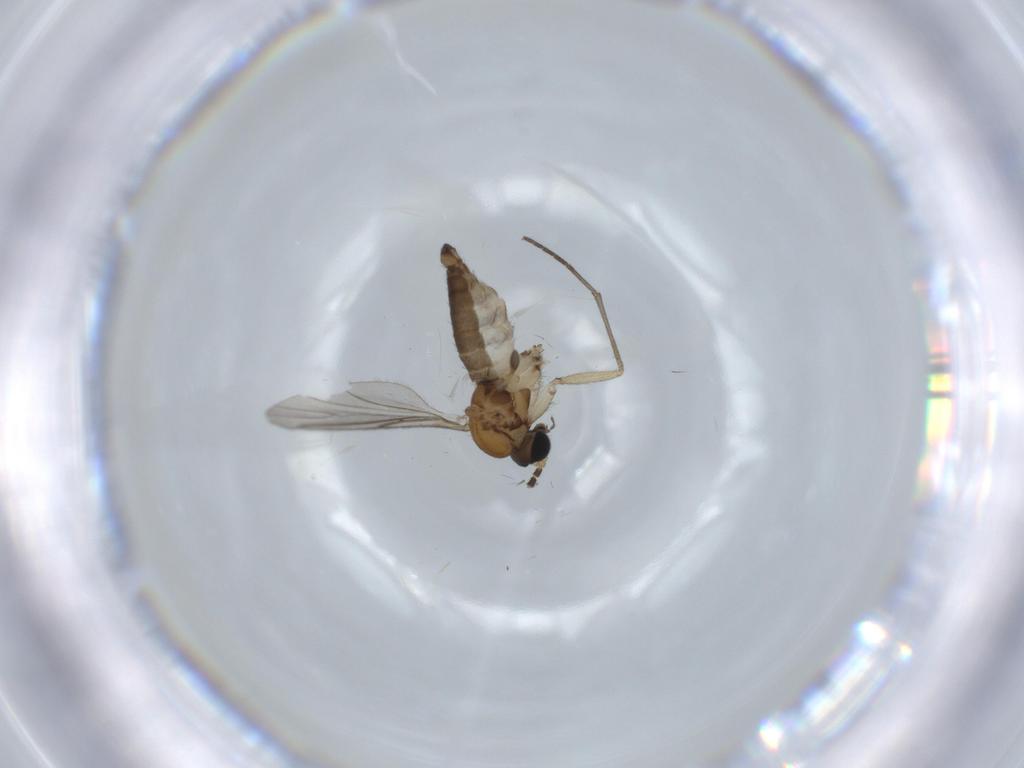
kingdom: Animalia
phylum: Arthropoda
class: Insecta
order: Diptera
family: Sciaridae
